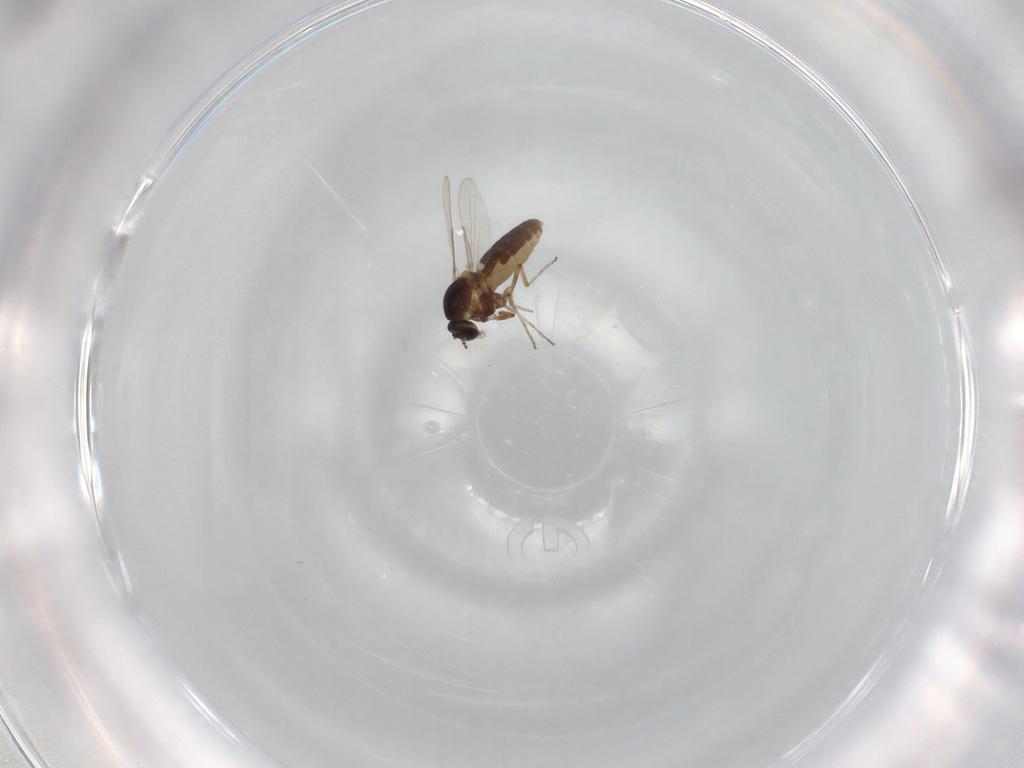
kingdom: Animalia
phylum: Arthropoda
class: Insecta
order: Diptera
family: Ceratopogonidae
